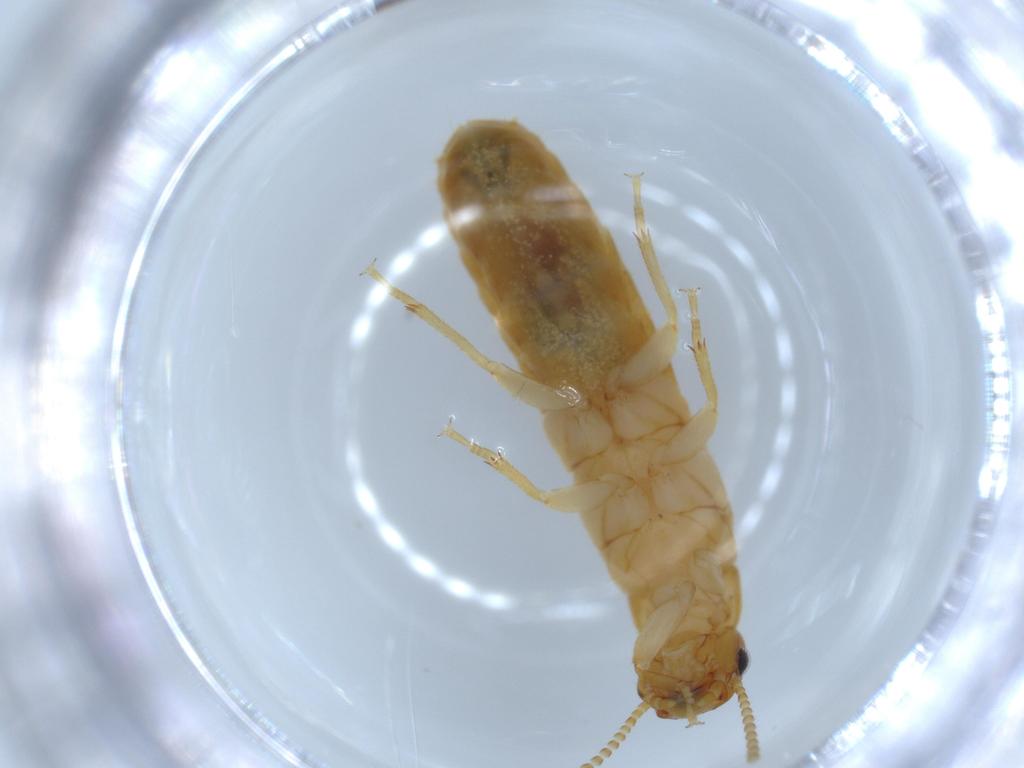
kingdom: Animalia
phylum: Arthropoda
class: Insecta
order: Blattodea
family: Kalotermitidae
